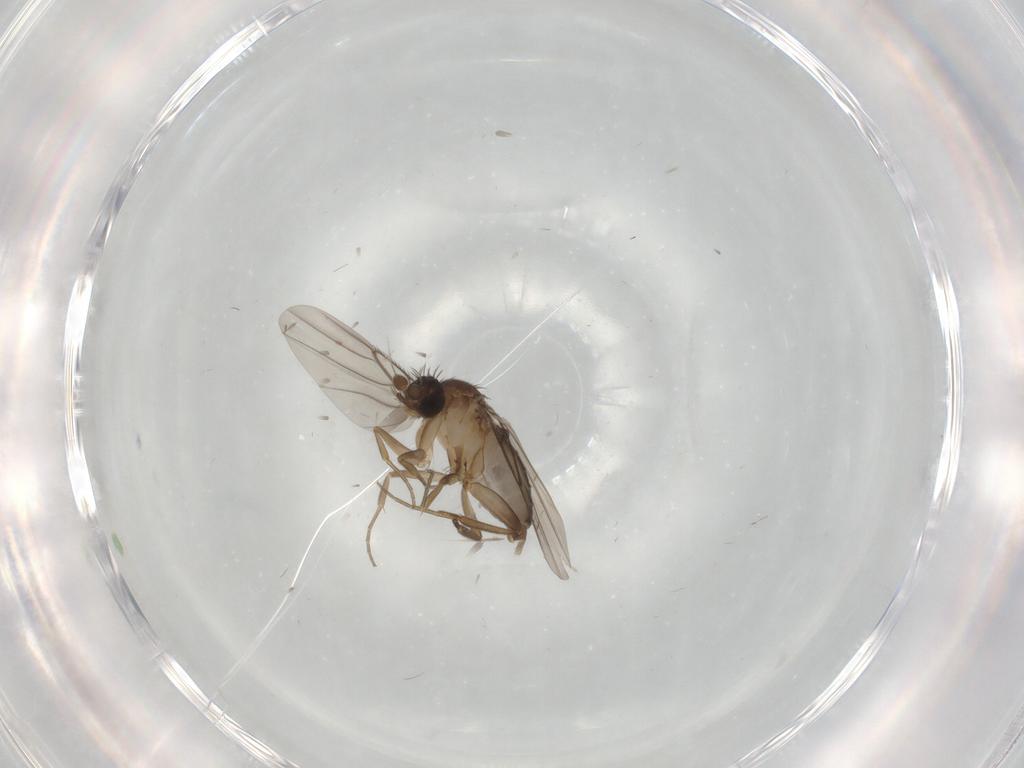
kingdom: Animalia
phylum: Arthropoda
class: Insecta
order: Diptera
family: Phoridae
